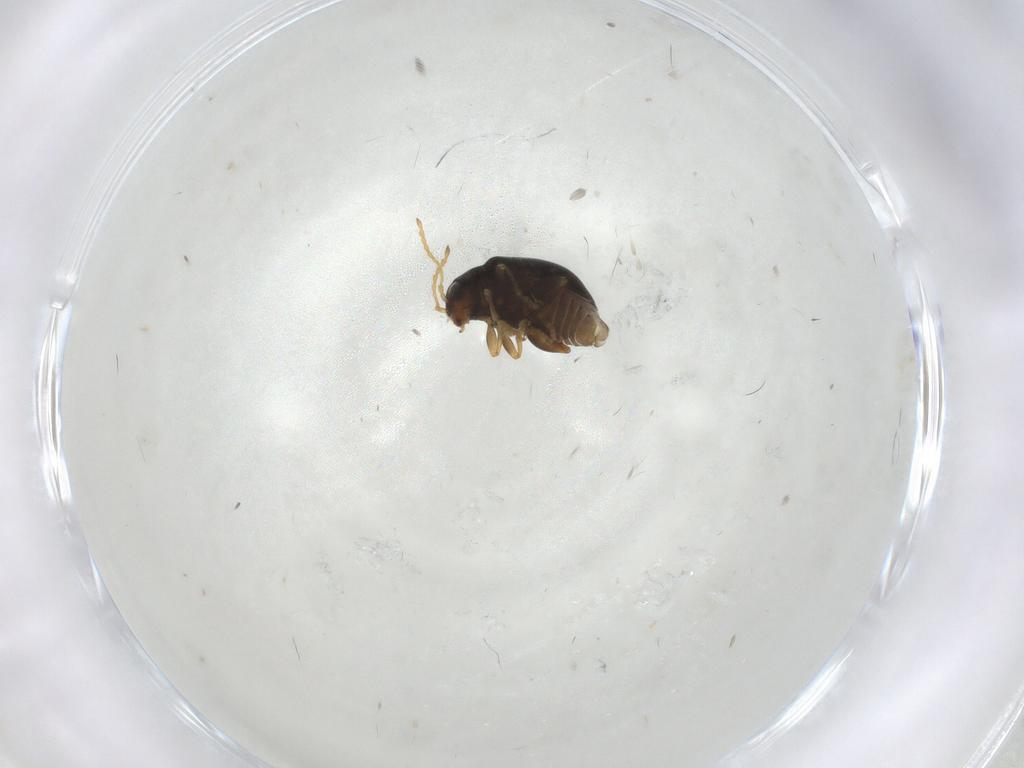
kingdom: Animalia
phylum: Arthropoda
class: Insecta
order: Coleoptera
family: Chrysomelidae
